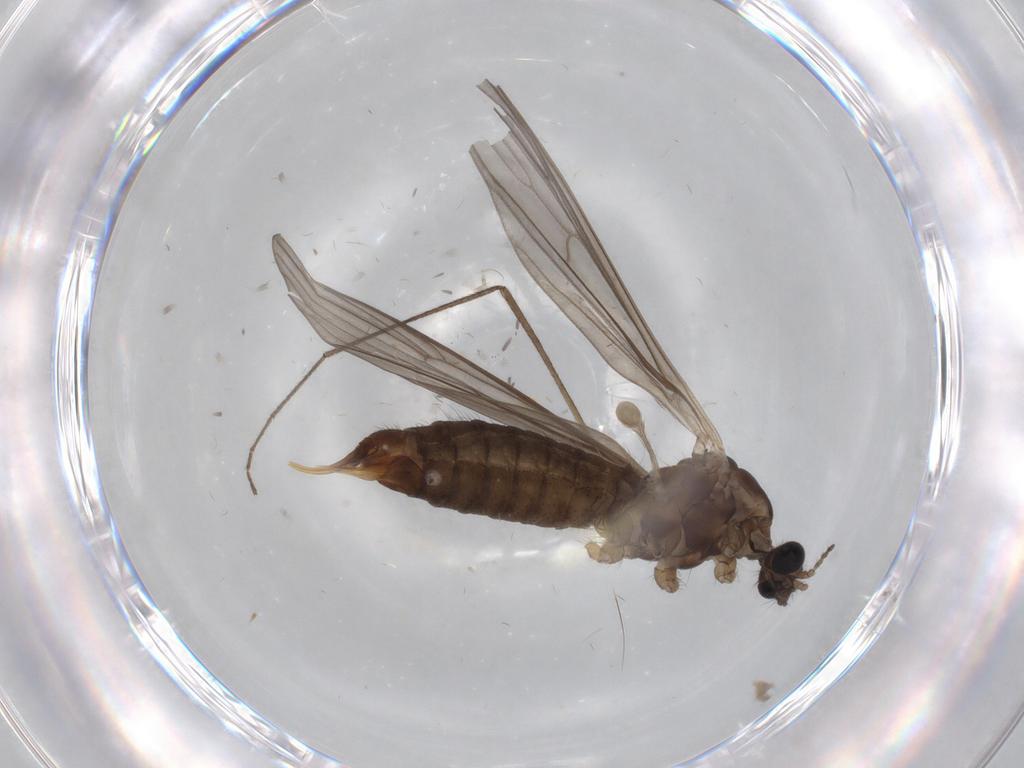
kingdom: Animalia
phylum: Arthropoda
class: Insecta
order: Diptera
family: Limoniidae
